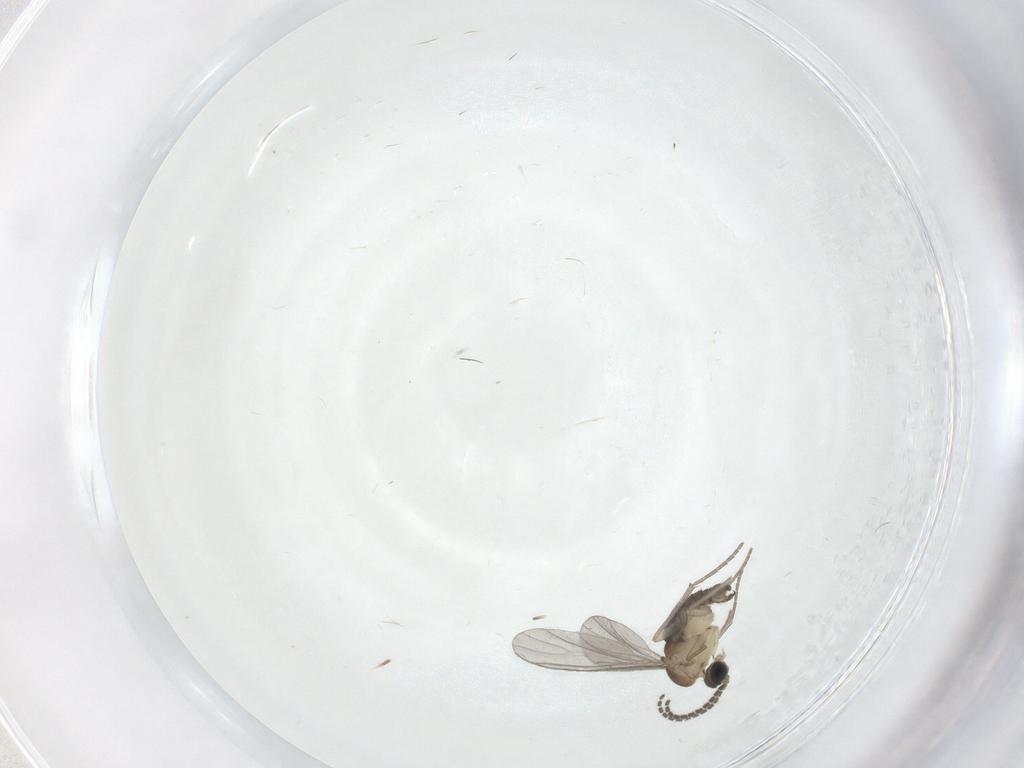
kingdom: Animalia
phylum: Arthropoda
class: Insecta
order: Diptera
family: Sciaridae
